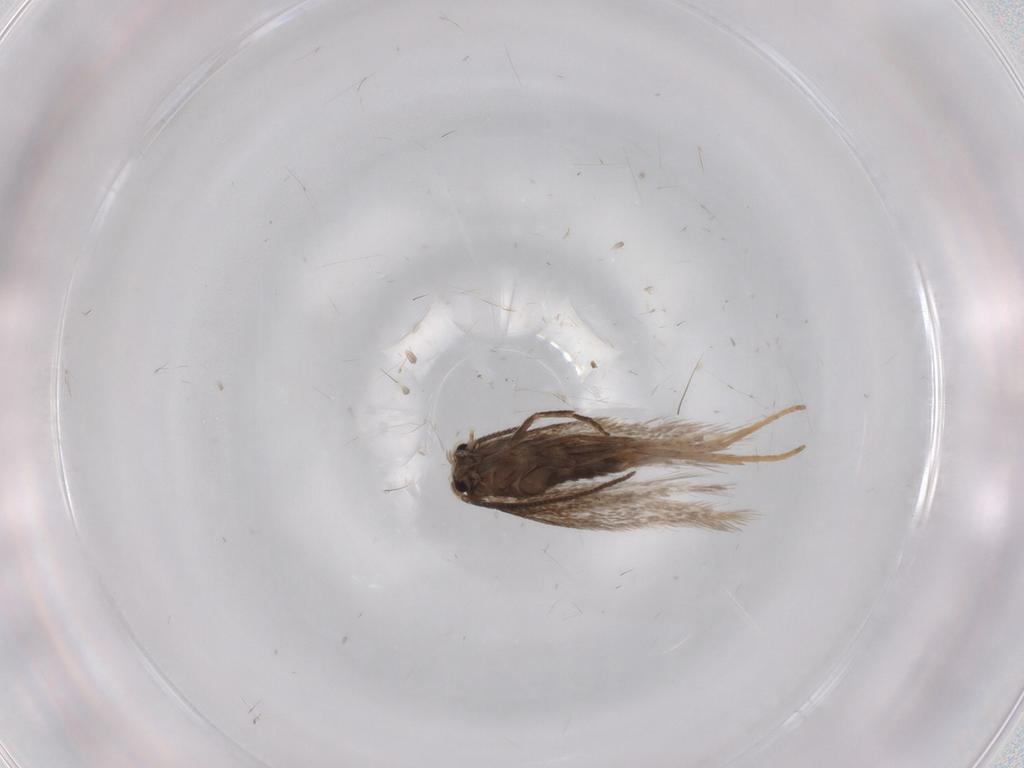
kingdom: Animalia
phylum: Arthropoda
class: Insecta
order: Lepidoptera
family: Nepticulidae
